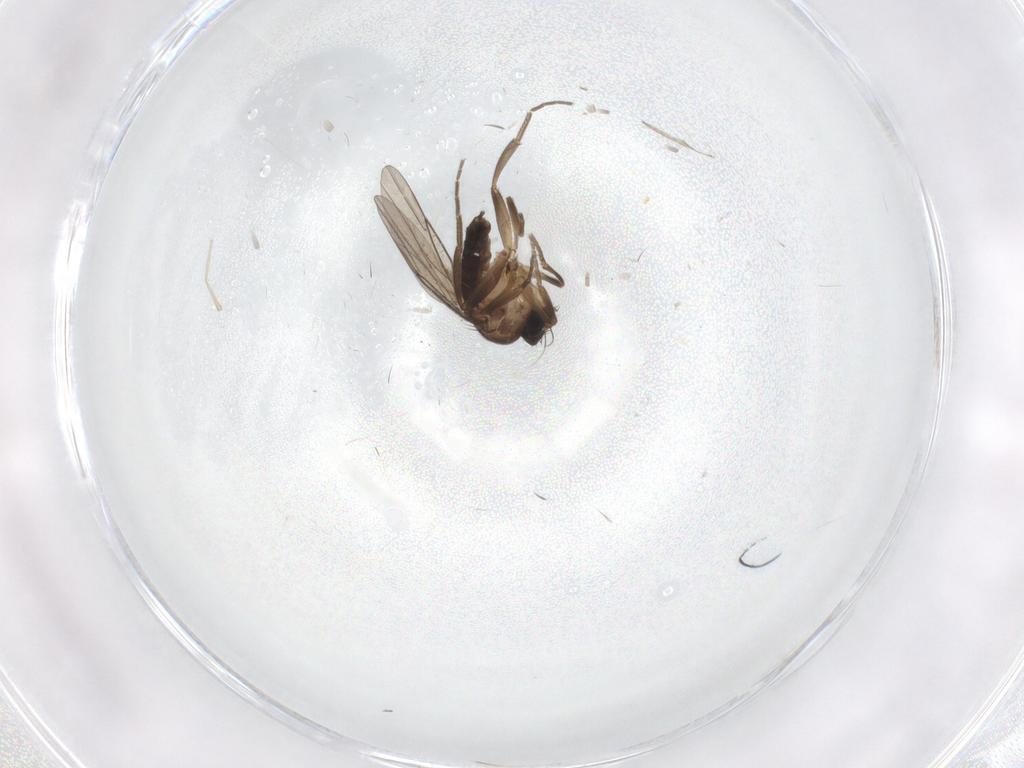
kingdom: Animalia
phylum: Arthropoda
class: Insecta
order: Diptera
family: Phoridae
